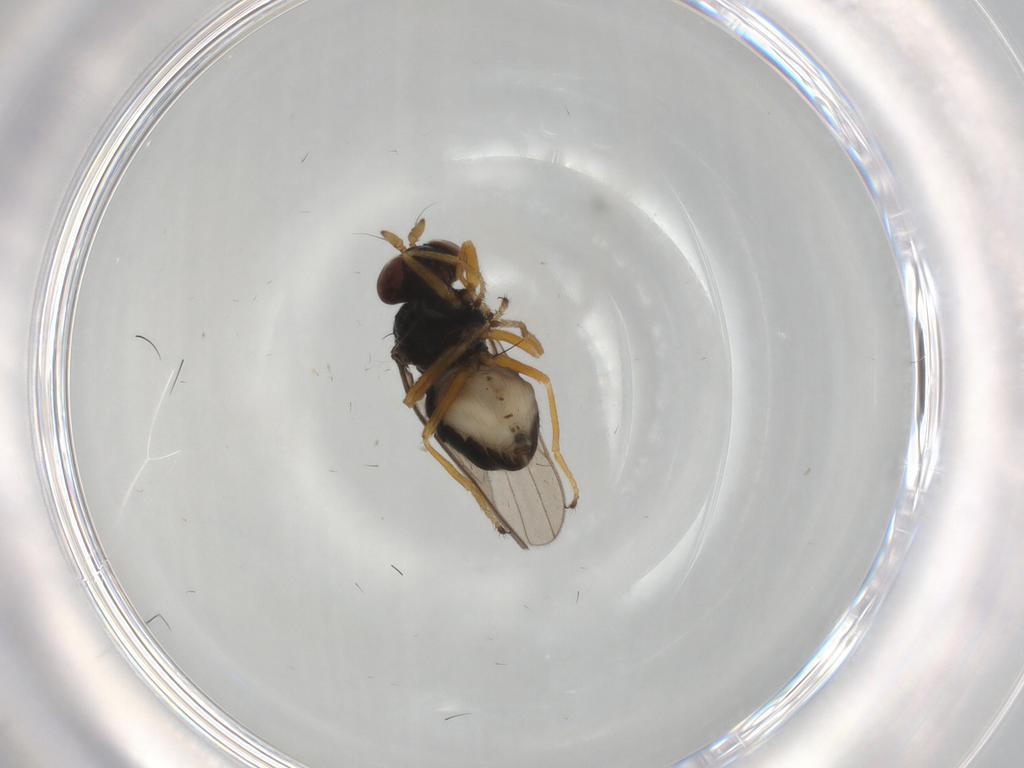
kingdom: Animalia
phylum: Arthropoda
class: Insecta
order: Diptera
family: Ephydridae
